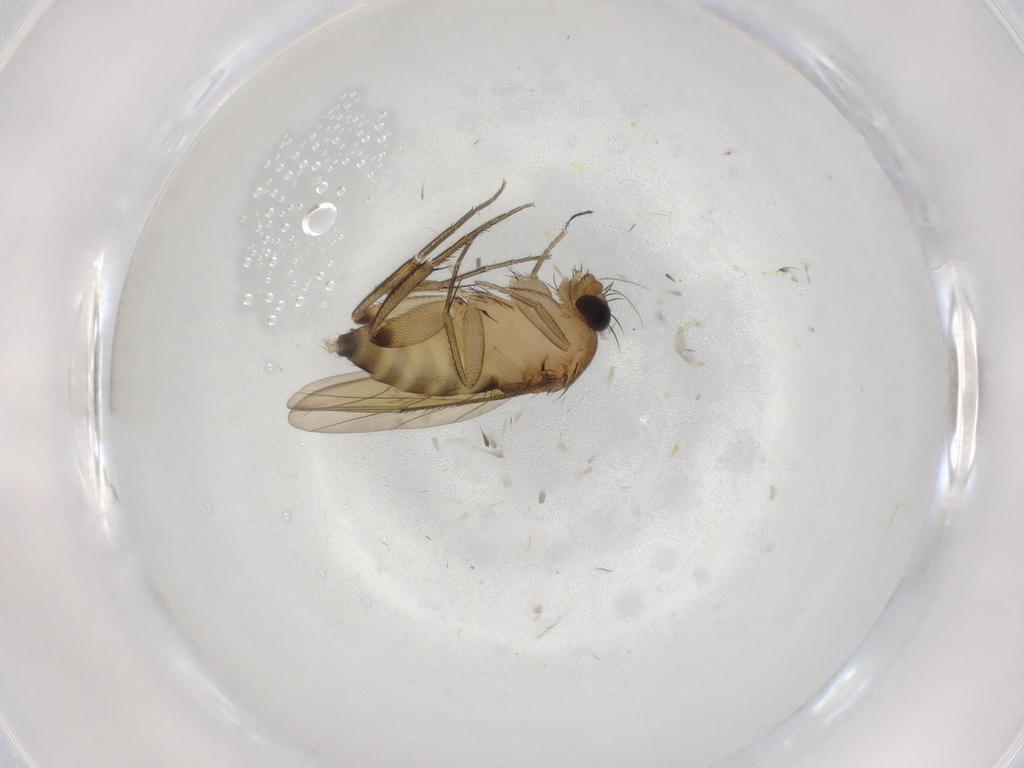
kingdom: Animalia
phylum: Arthropoda
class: Insecta
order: Diptera
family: Phoridae
